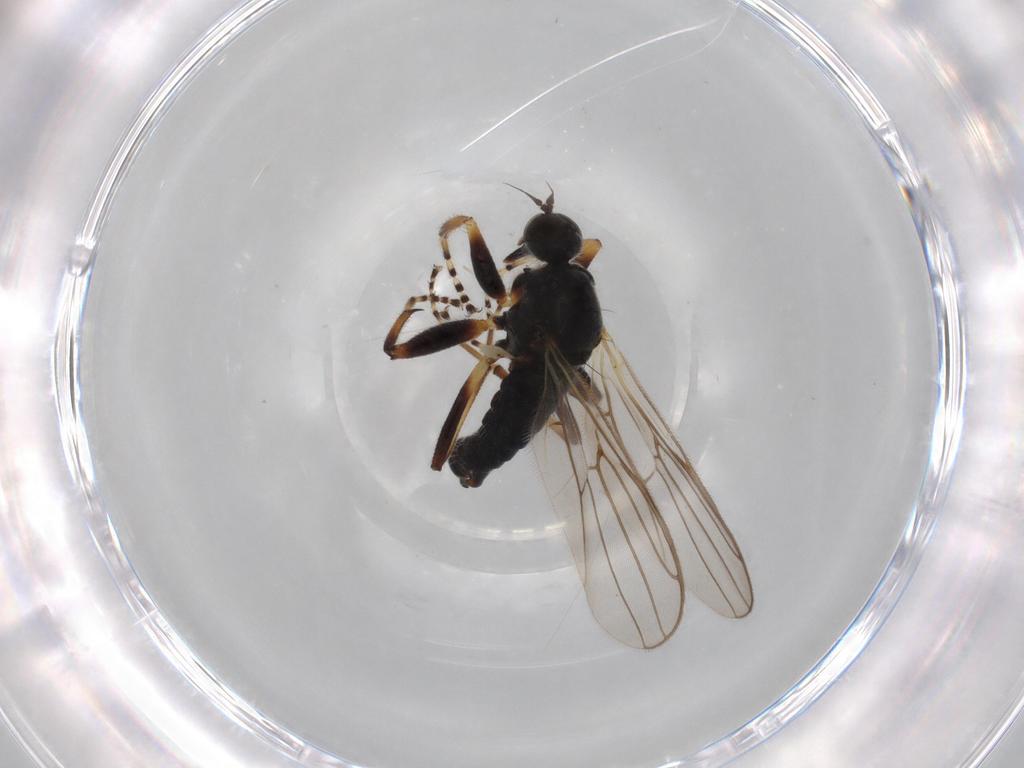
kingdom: Animalia
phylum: Arthropoda
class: Insecta
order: Diptera
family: Hybotidae
